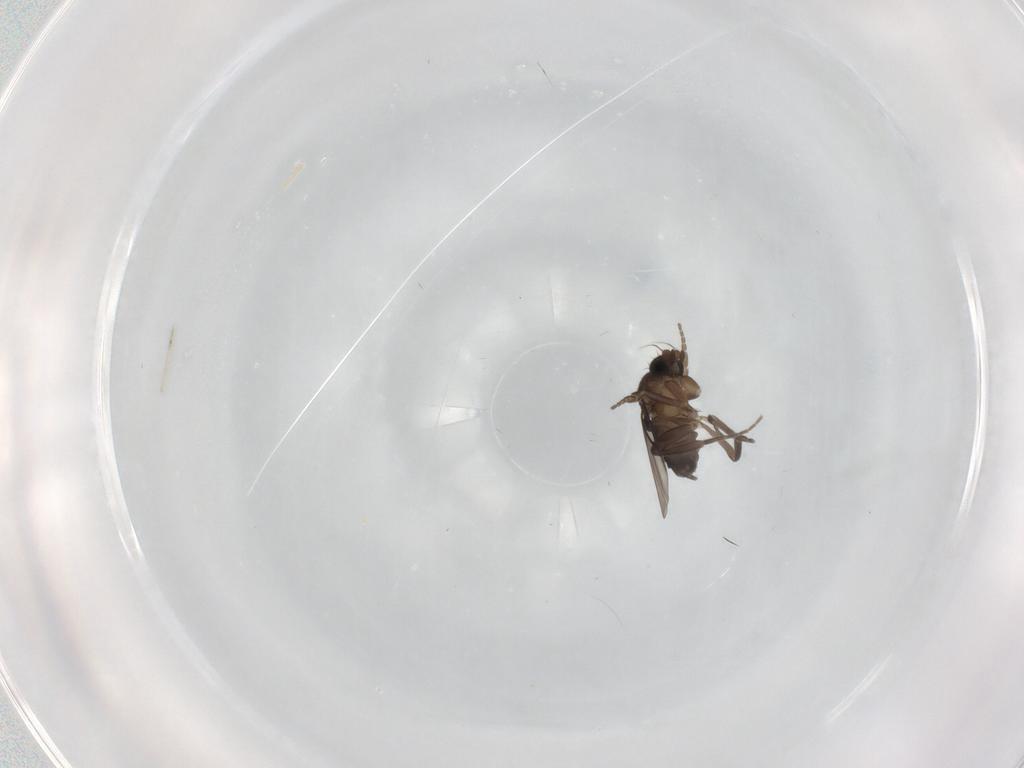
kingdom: Animalia
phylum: Arthropoda
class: Insecta
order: Diptera
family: Phoridae
